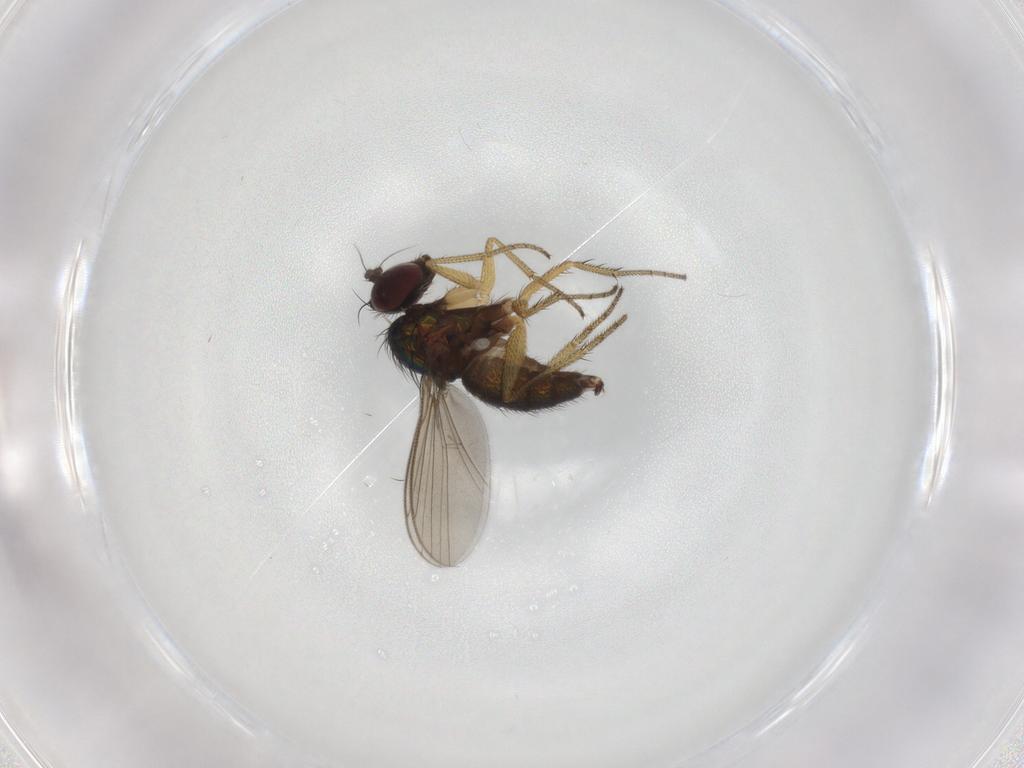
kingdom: Animalia
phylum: Arthropoda
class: Insecta
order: Diptera
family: Dolichopodidae
